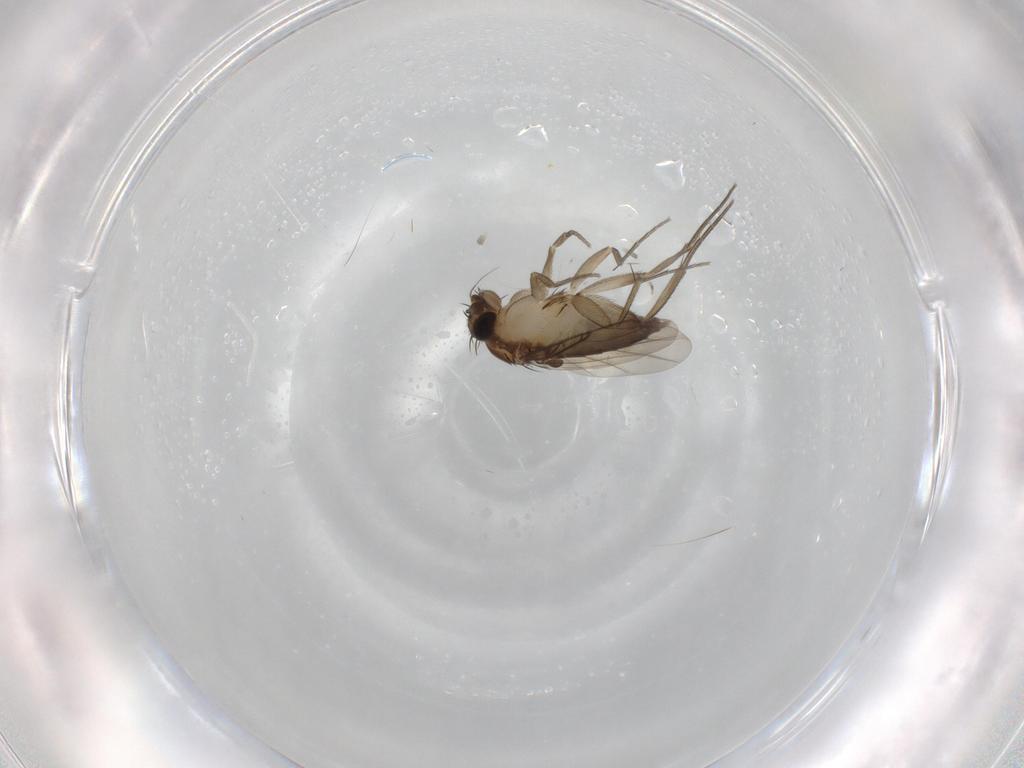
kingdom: Animalia
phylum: Arthropoda
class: Insecta
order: Diptera
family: Phoridae
